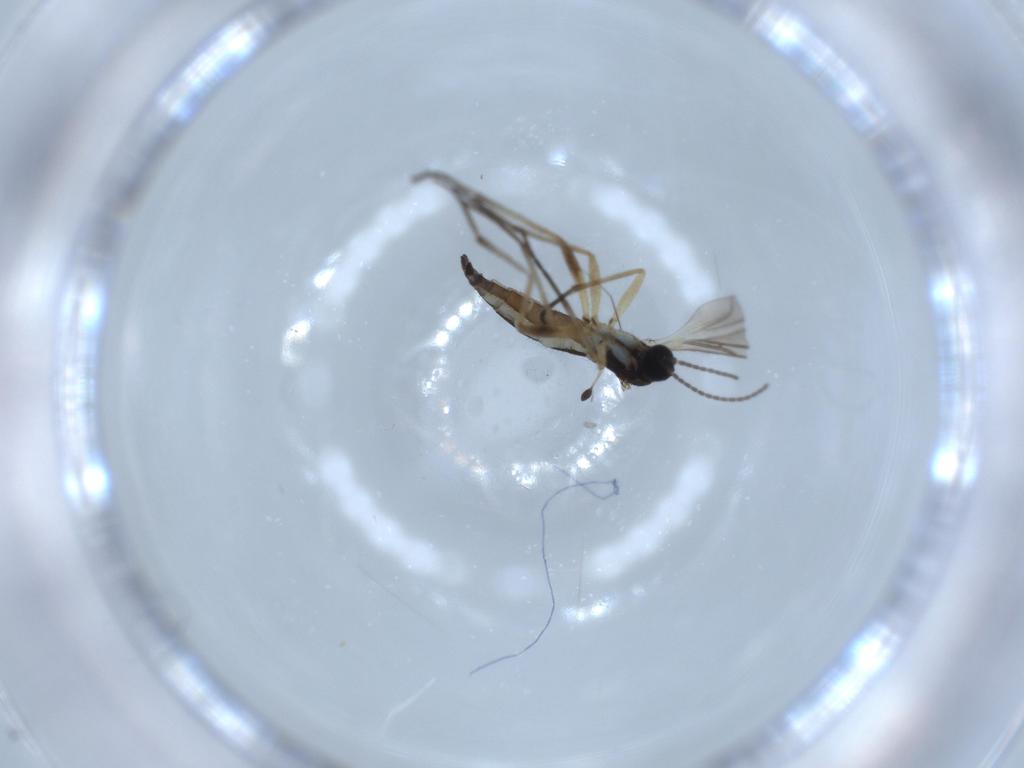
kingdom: Animalia
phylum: Arthropoda
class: Insecta
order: Diptera
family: Sciaridae
